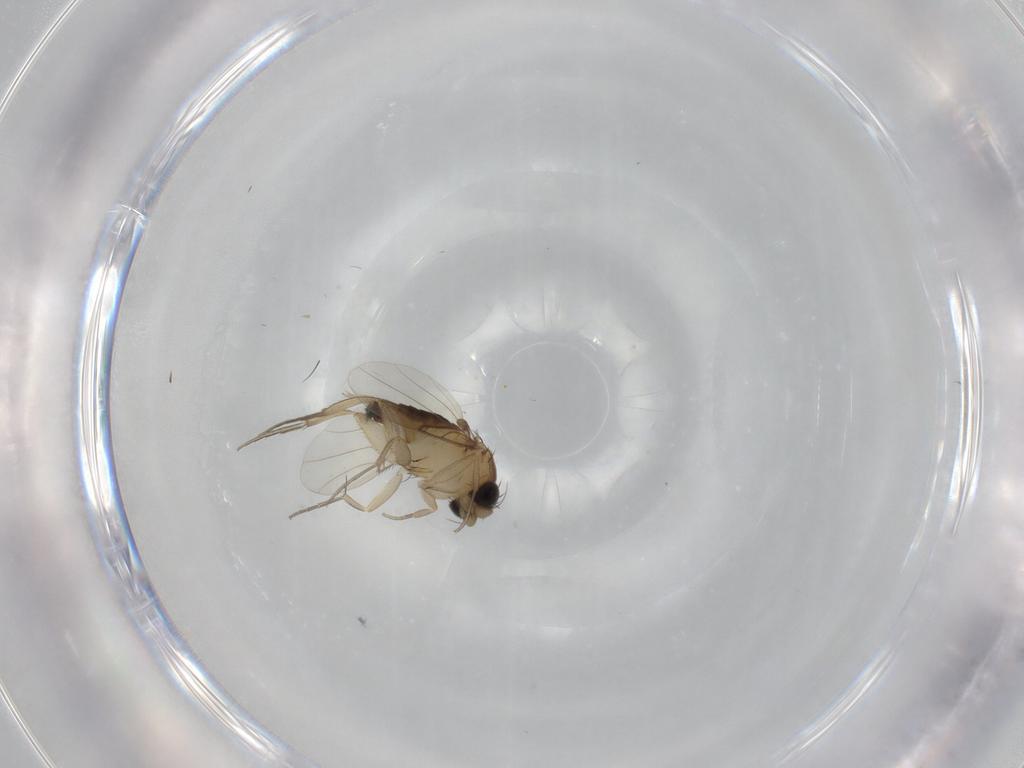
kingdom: Animalia
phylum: Arthropoda
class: Insecta
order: Diptera
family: Phoridae
